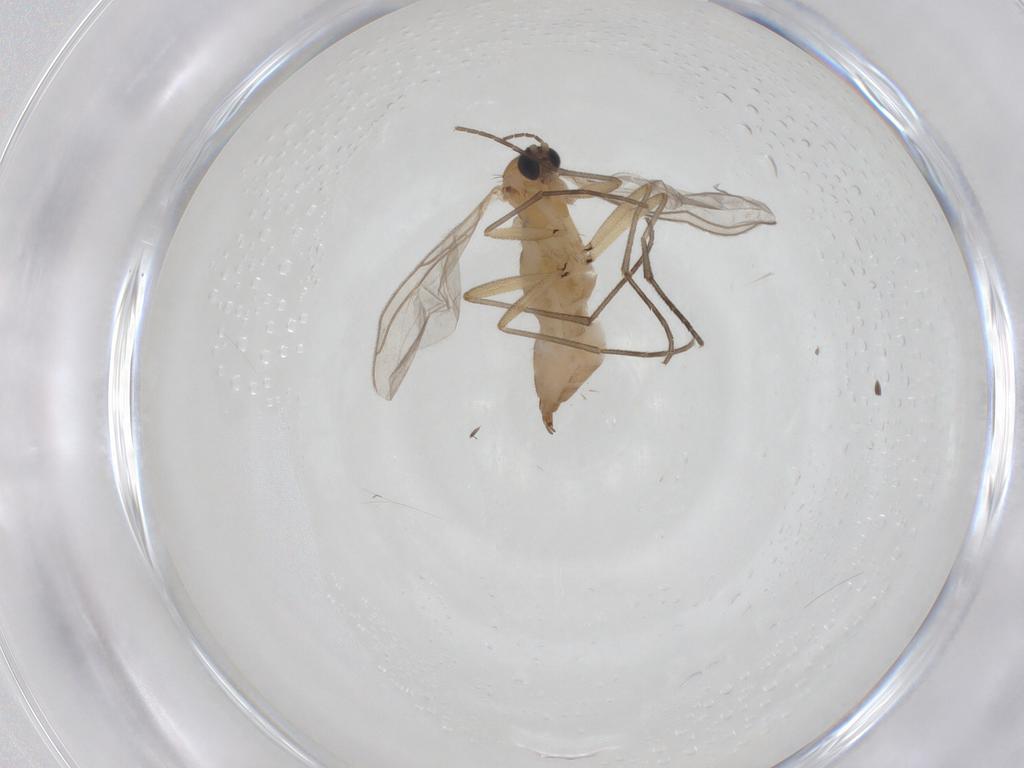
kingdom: Animalia
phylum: Arthropoda
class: Insecta
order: Diptera
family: Sciaridae
